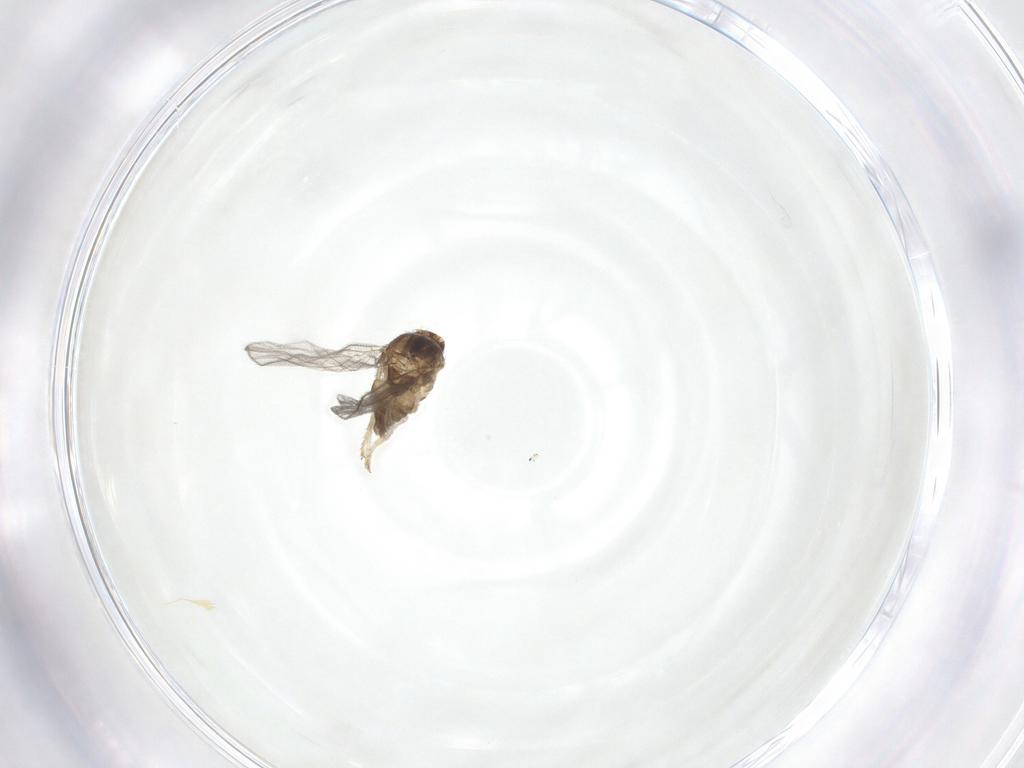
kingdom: Animalia
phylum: Arthropoda
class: Insecta
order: Diptera
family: Chloropidae
